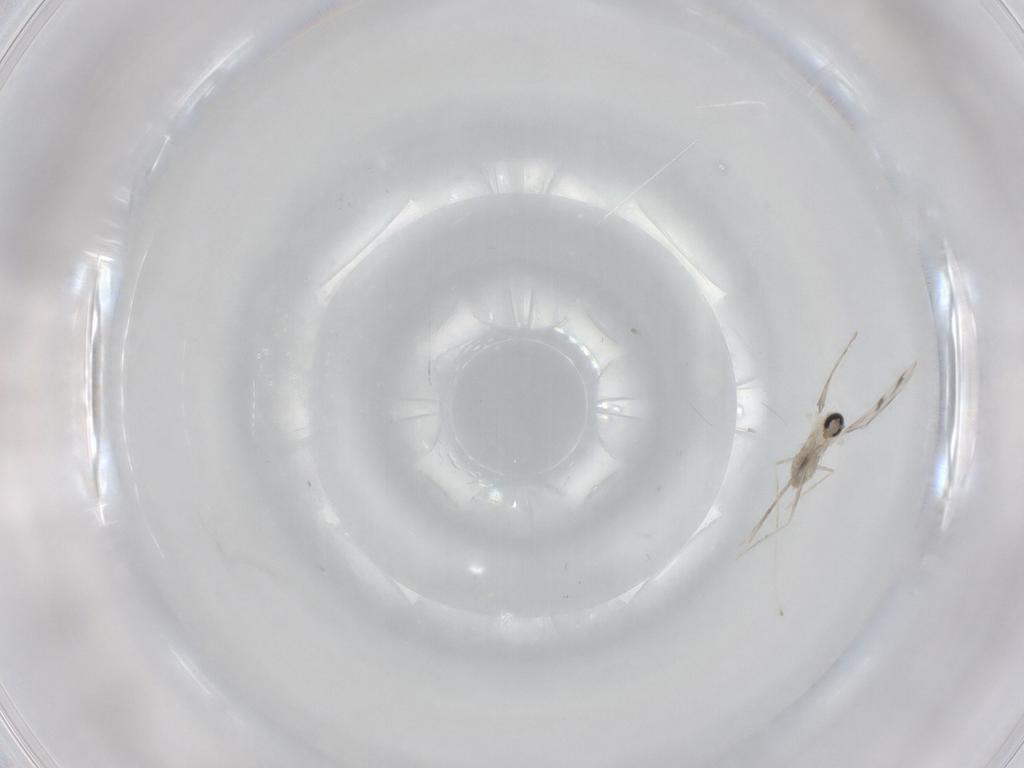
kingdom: Animalia
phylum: Arthropoda
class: Insecta
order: Diptera
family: Cecidomyiidae
